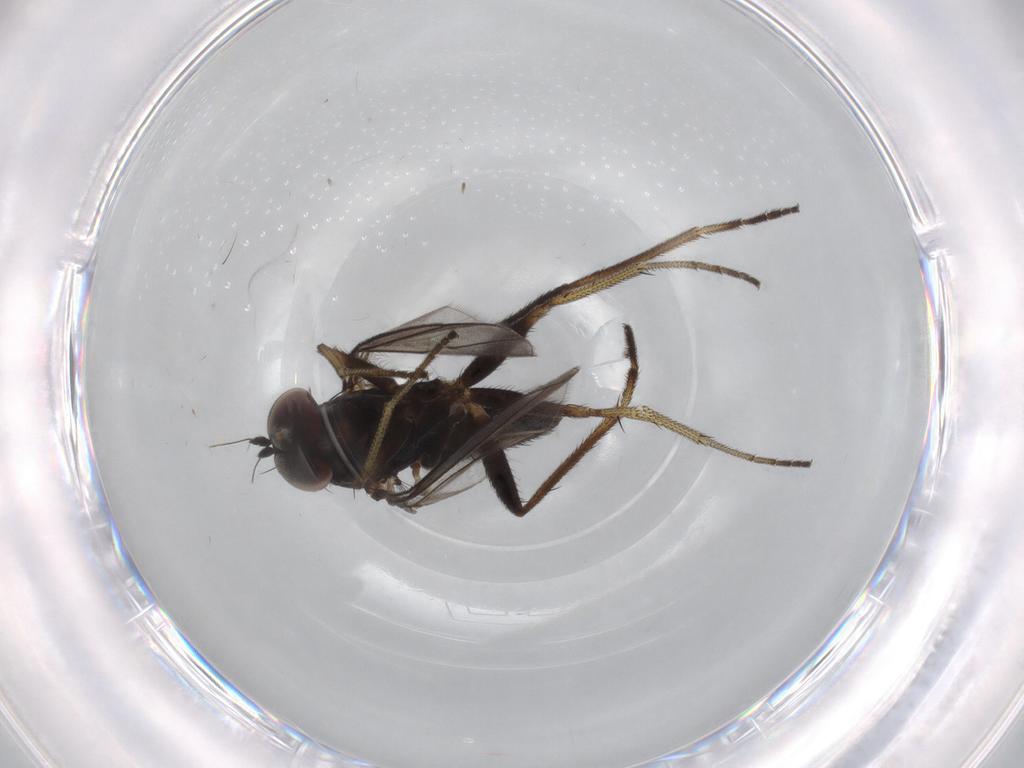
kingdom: Animalia
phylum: Arthropoda
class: Insecta
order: Diptera
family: Dolichopodidae
